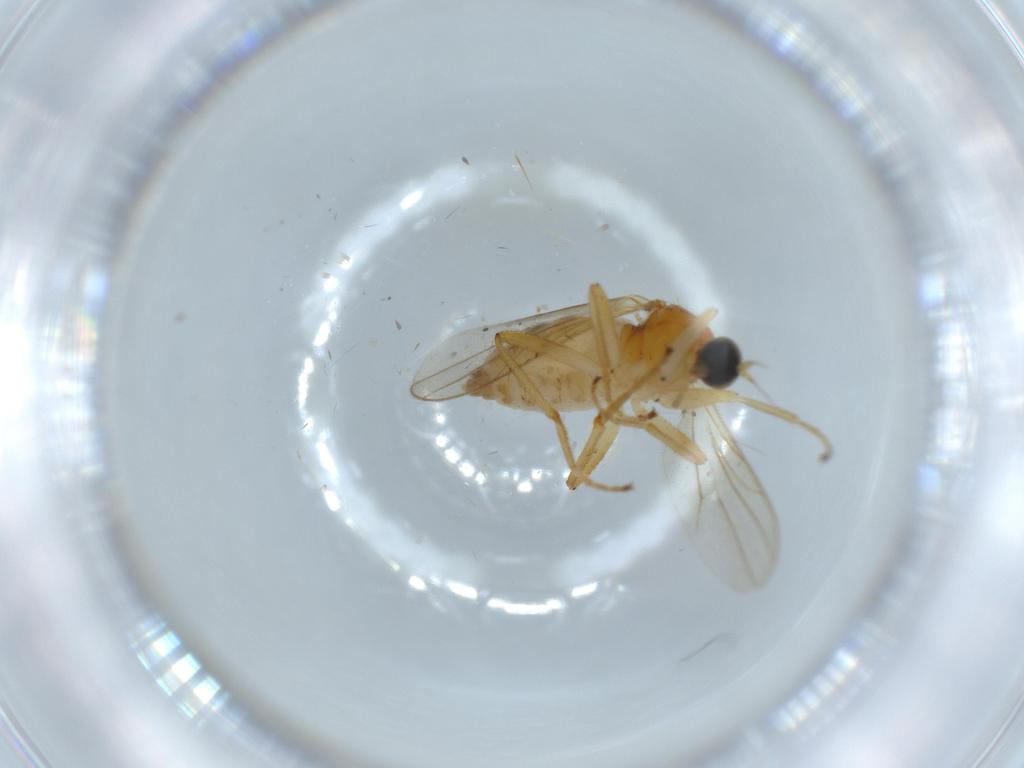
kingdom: Animalia
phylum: Arthropoda
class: Insecta
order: Diptera
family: Hybotidae
